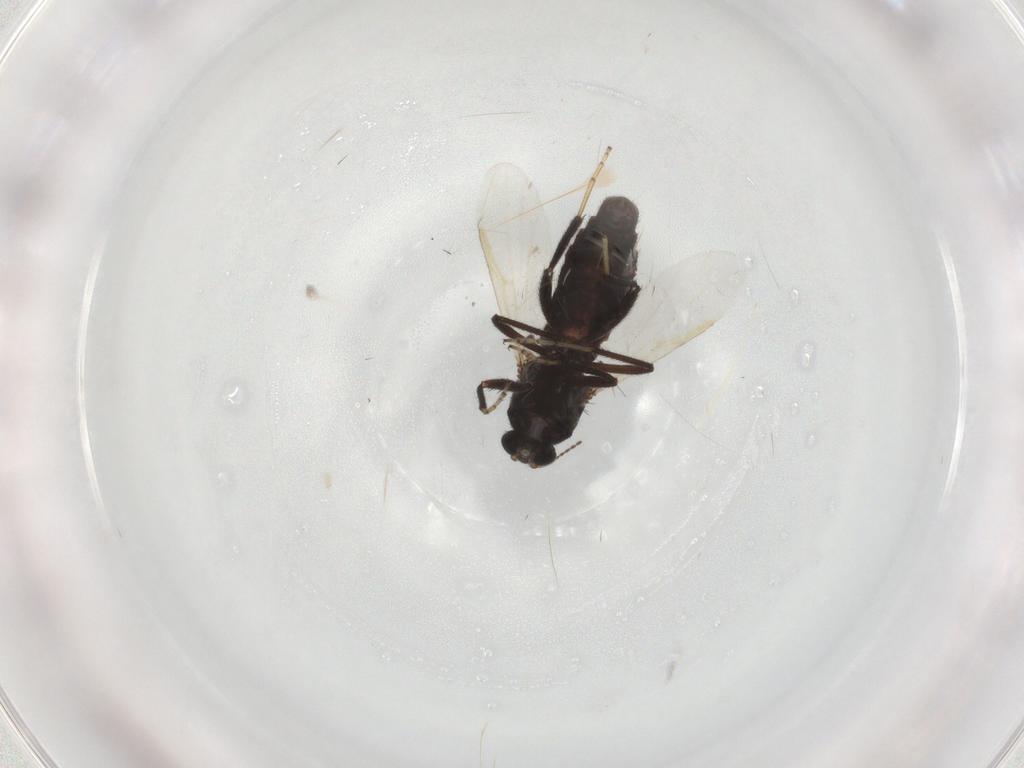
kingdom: Animalia
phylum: Arthropoda
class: Insecta
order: Diptera
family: Ceratopogonidae
